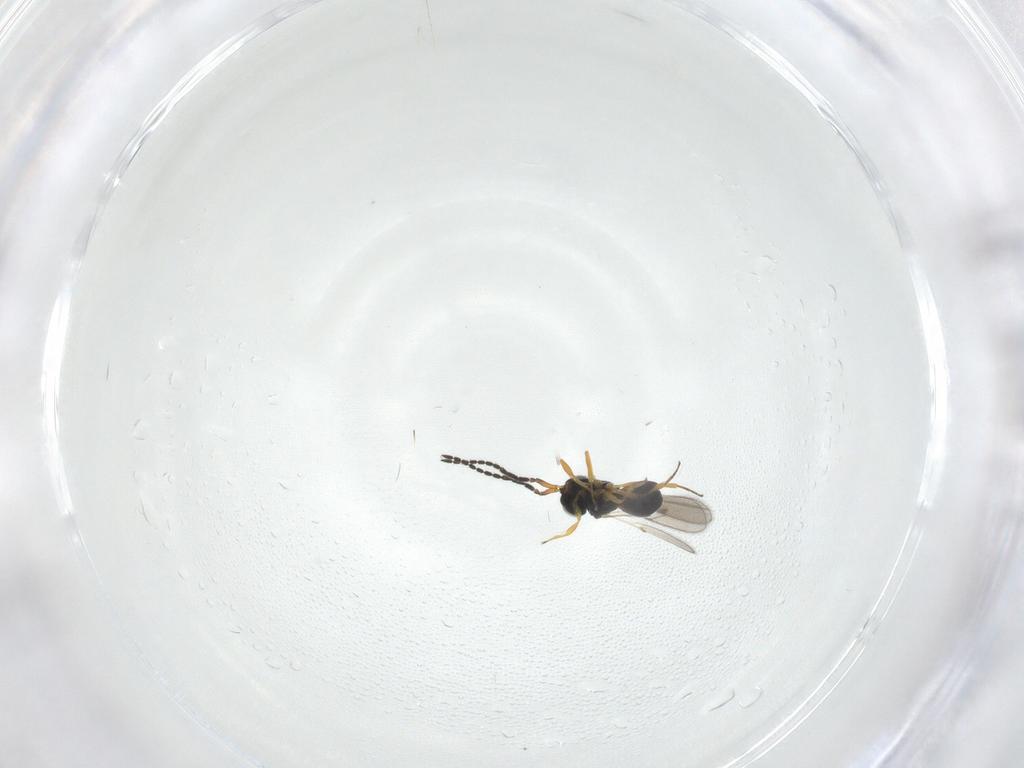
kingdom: Animalia
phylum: Arthropoda
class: Insecta
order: Hymenoptera
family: Scelionidae
